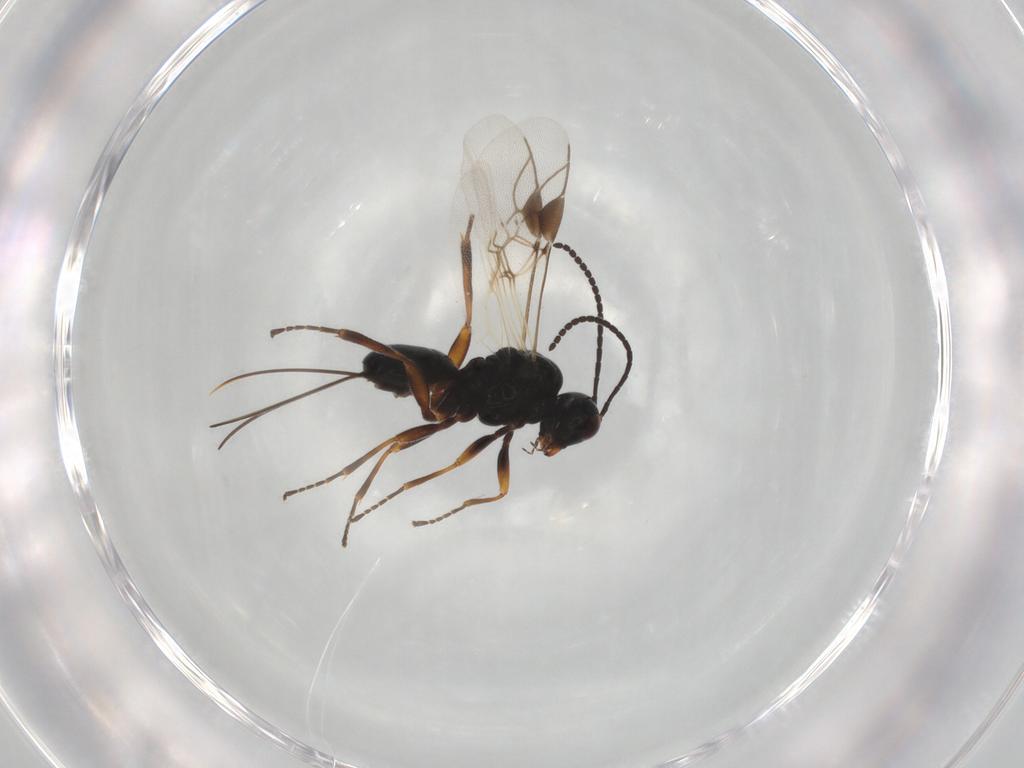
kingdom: Animalia
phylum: Arthropoda
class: Insecta
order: Hymenoptera
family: Braconidae
